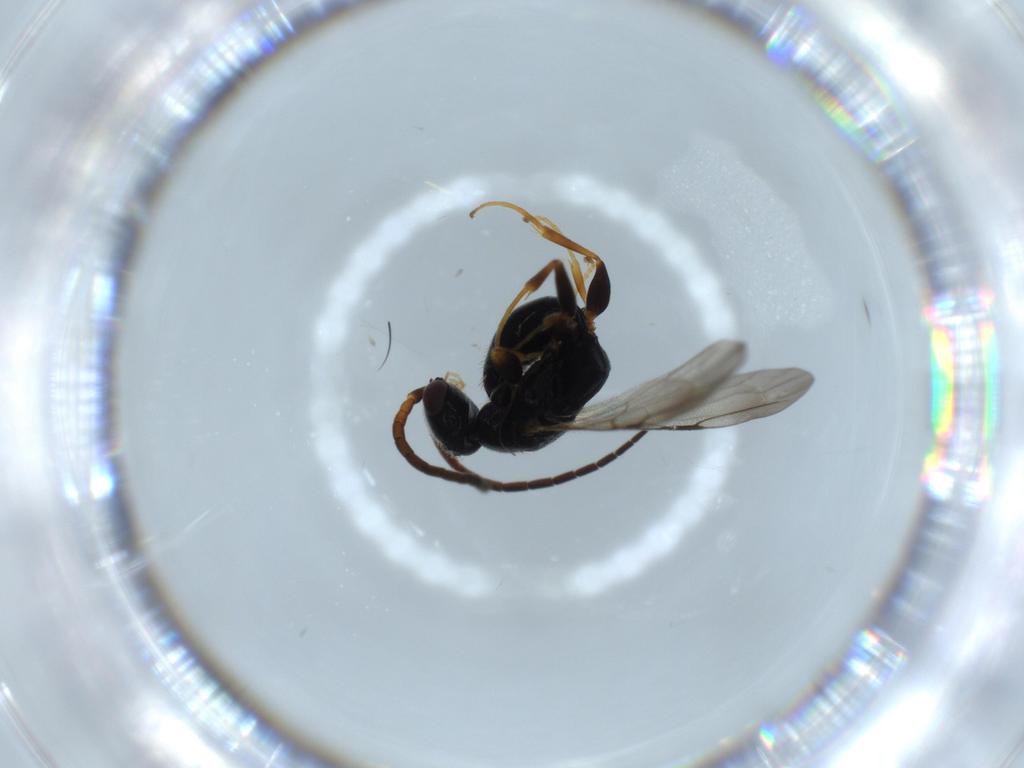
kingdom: Animalia
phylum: Arthropoda
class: Insecta
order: Hymenoptera
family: Bethylidae
